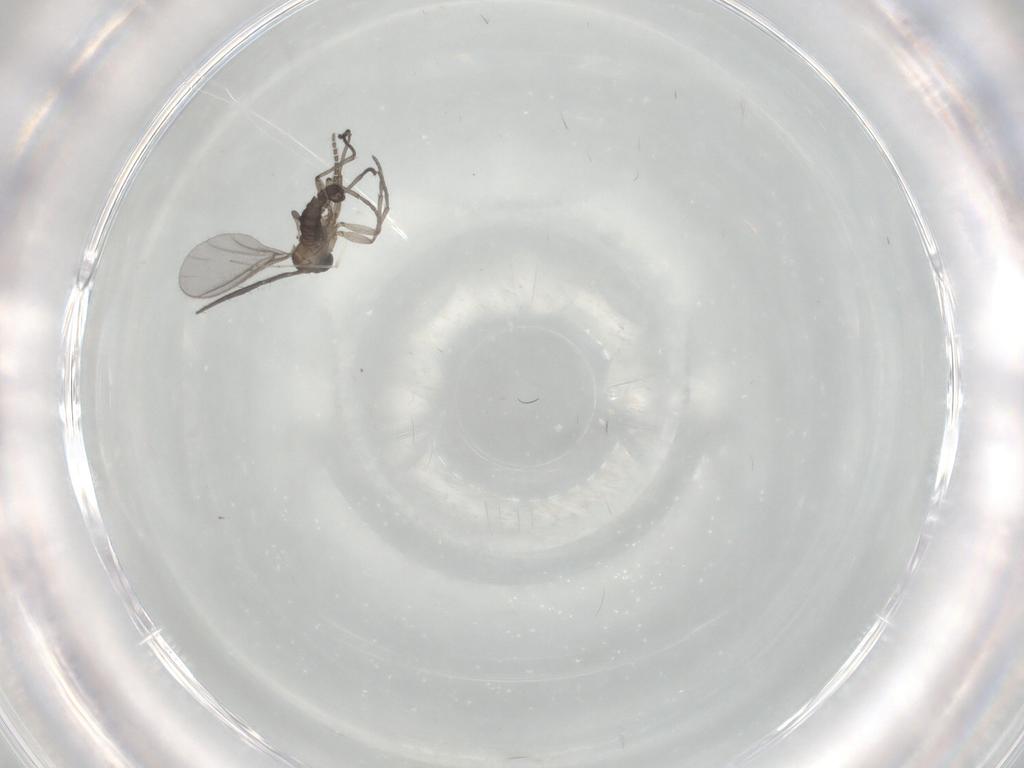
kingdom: Animalia
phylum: Arthropoda
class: Insecta
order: Diptera
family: Sciaridae
